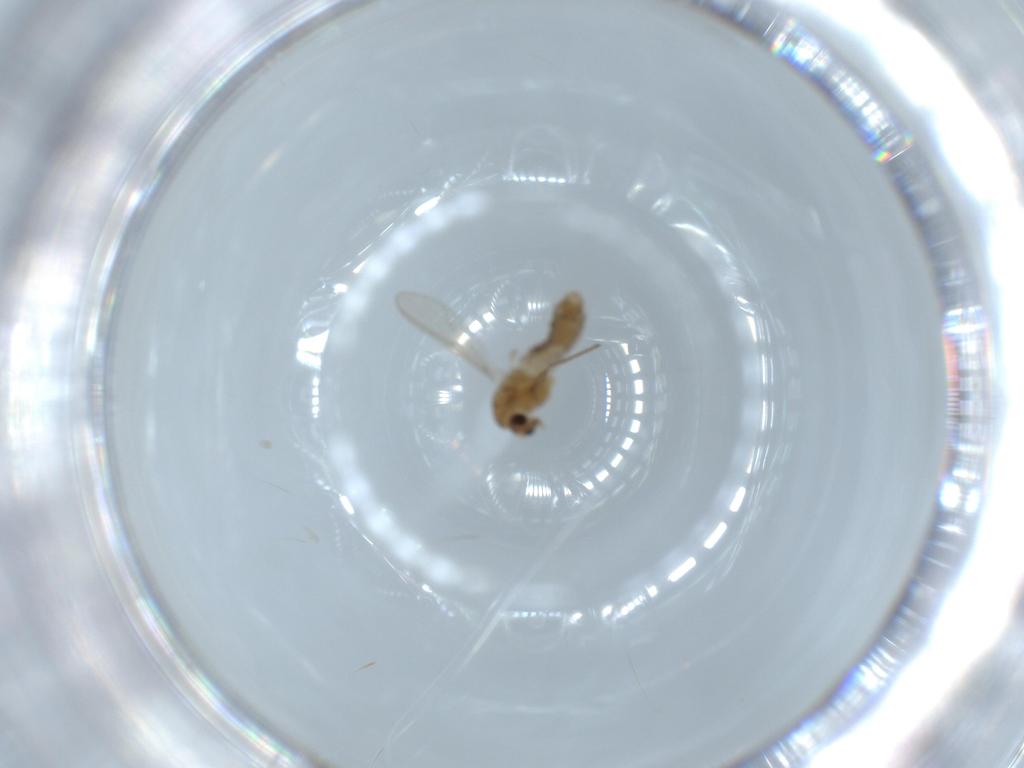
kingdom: Animalia
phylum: Arthropoda
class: Insecta
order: Diptera
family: Chironomidae
